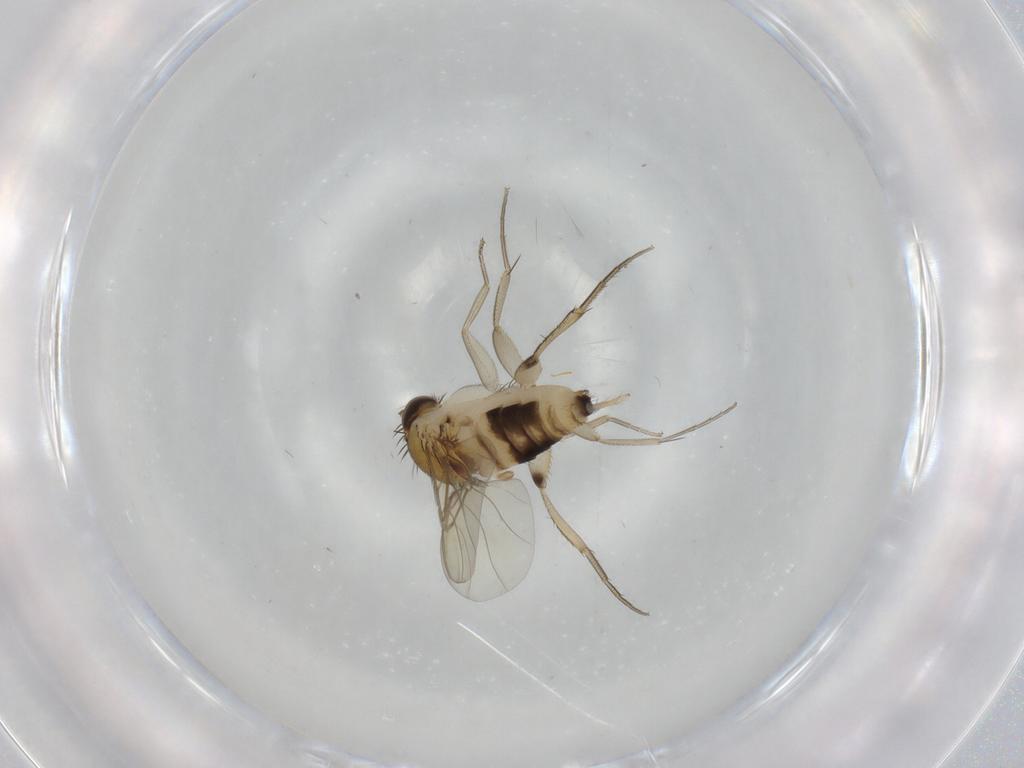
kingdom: Animalia
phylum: Arthropoda
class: Insecta
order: Diptera
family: Phoridae
